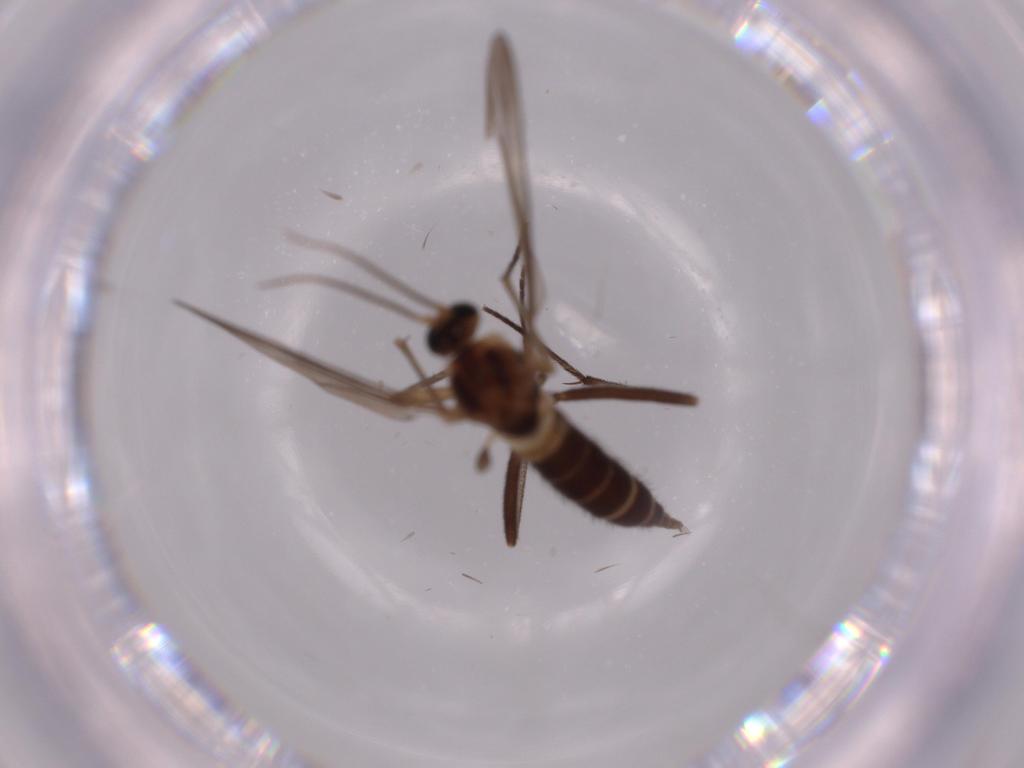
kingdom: Animalia
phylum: Arthropoda
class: Insecta
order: Diptera
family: Sciaridae
